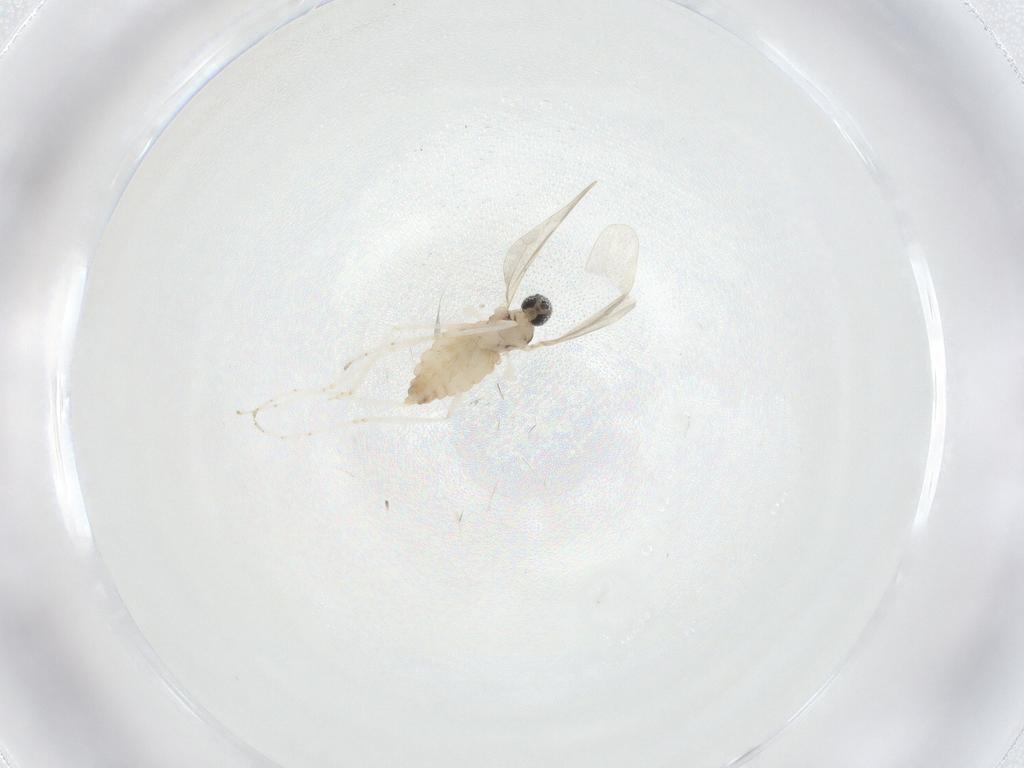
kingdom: Animalia
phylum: Arthropoda
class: Insecta
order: Diptera
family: Cecidomyiidae
